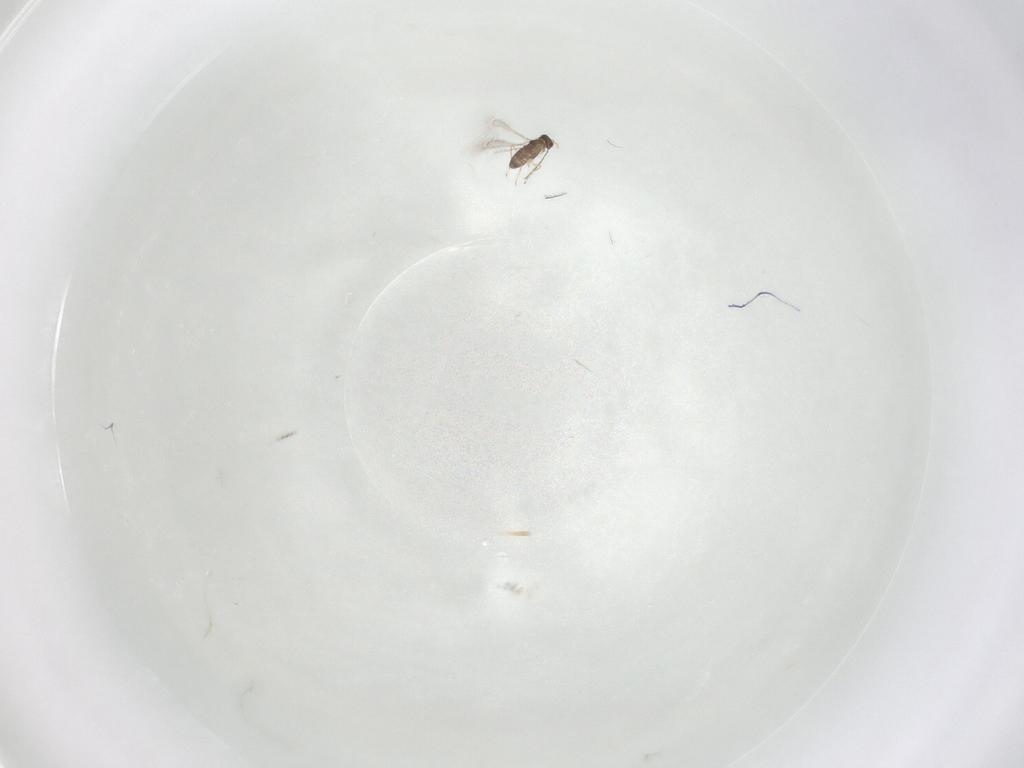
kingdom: Animalia
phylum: Arthropoda
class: Insecta
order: Hymenoptera
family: Mymaridae
